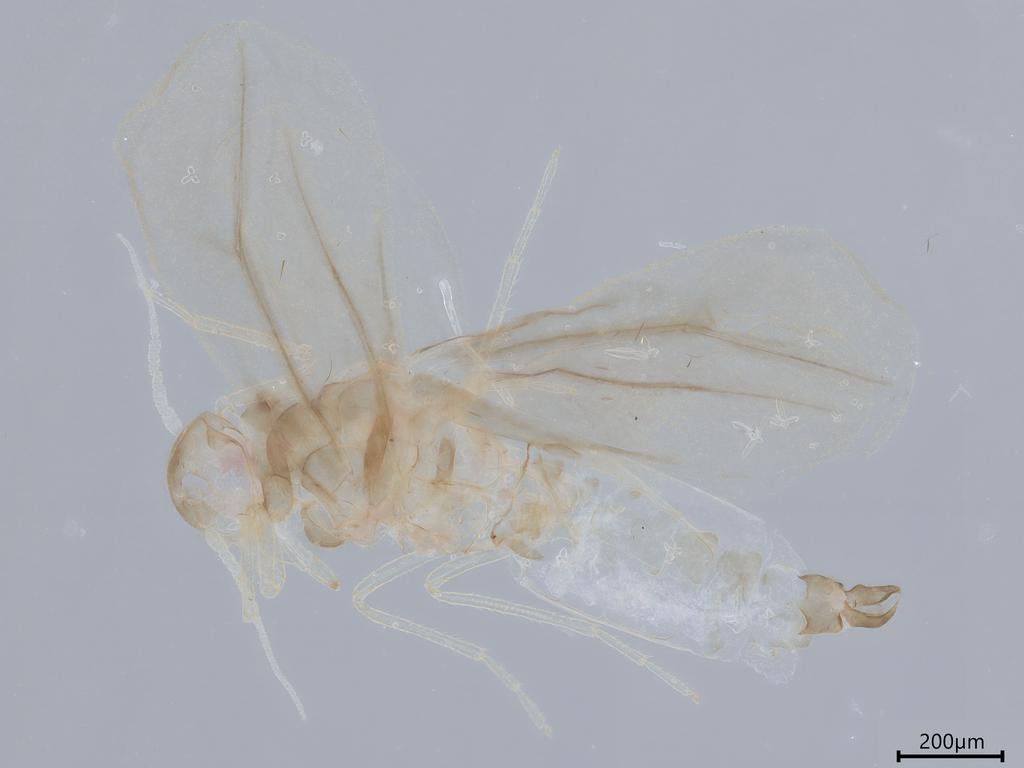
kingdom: Animalia
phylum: Arthropoda
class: Insecta
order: Hemiptera
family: Aleyrodidae
